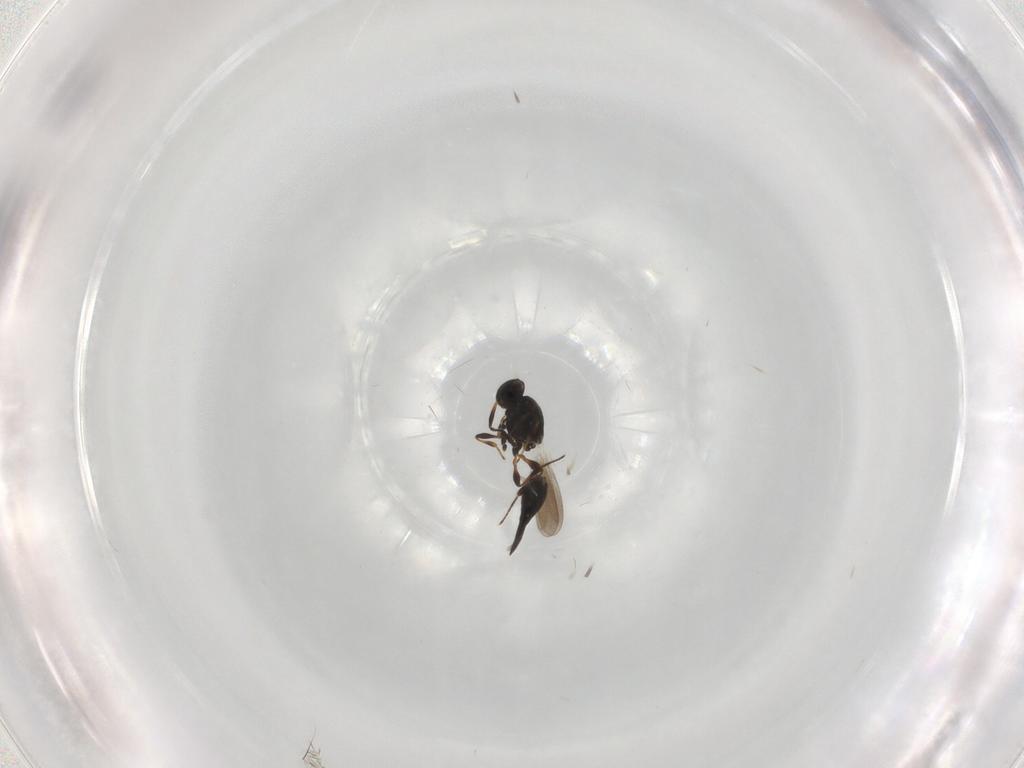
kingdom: Animalia
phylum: Arthropoda
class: Insecta
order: Hymenoptera
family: Platygastridae
